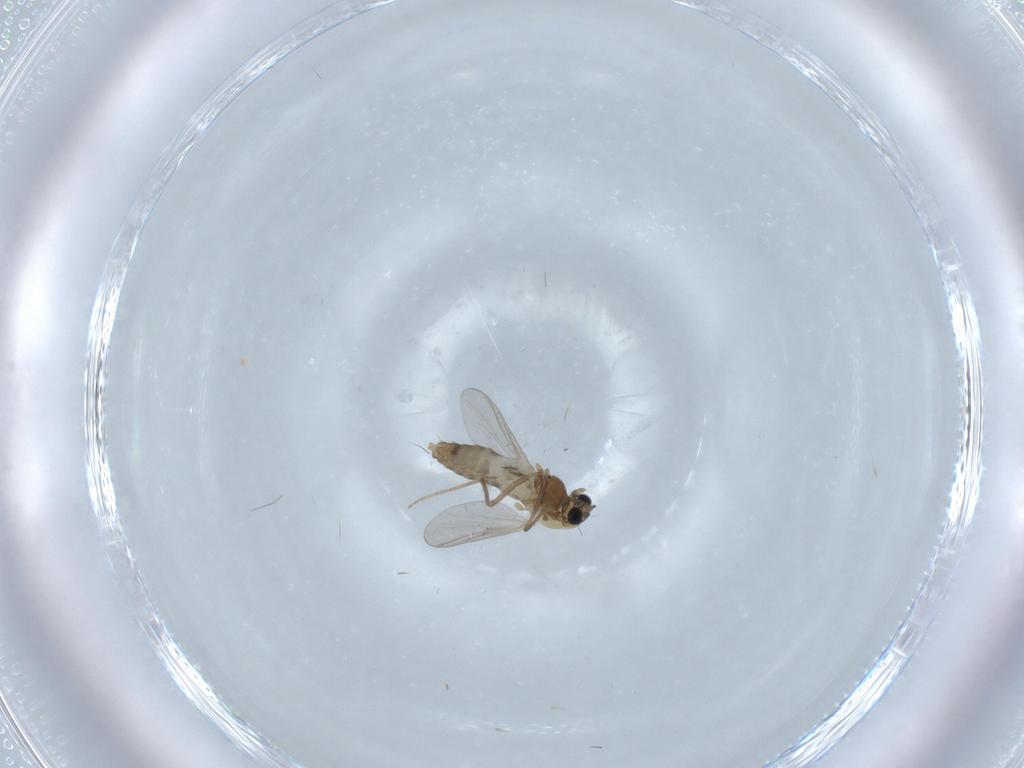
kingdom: Animalia
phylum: Arthropoda
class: Insecta
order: Diptera
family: Chironomidae
